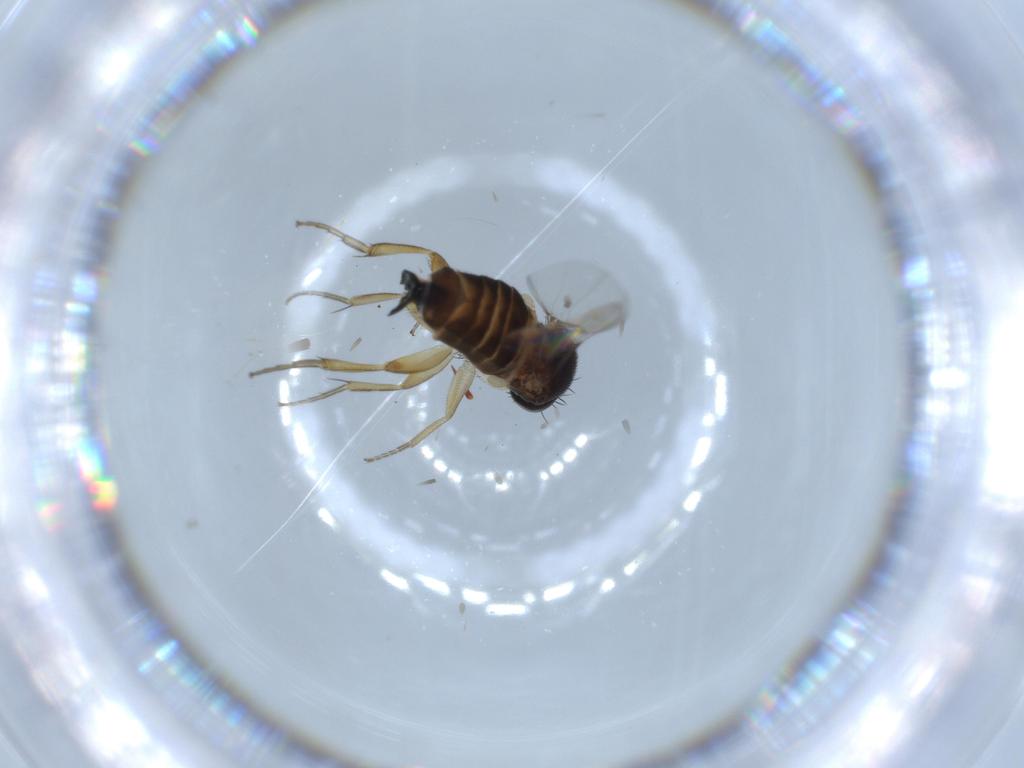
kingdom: Animalia
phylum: Arthropoda
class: Insecta
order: Diptera
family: Phoridae
